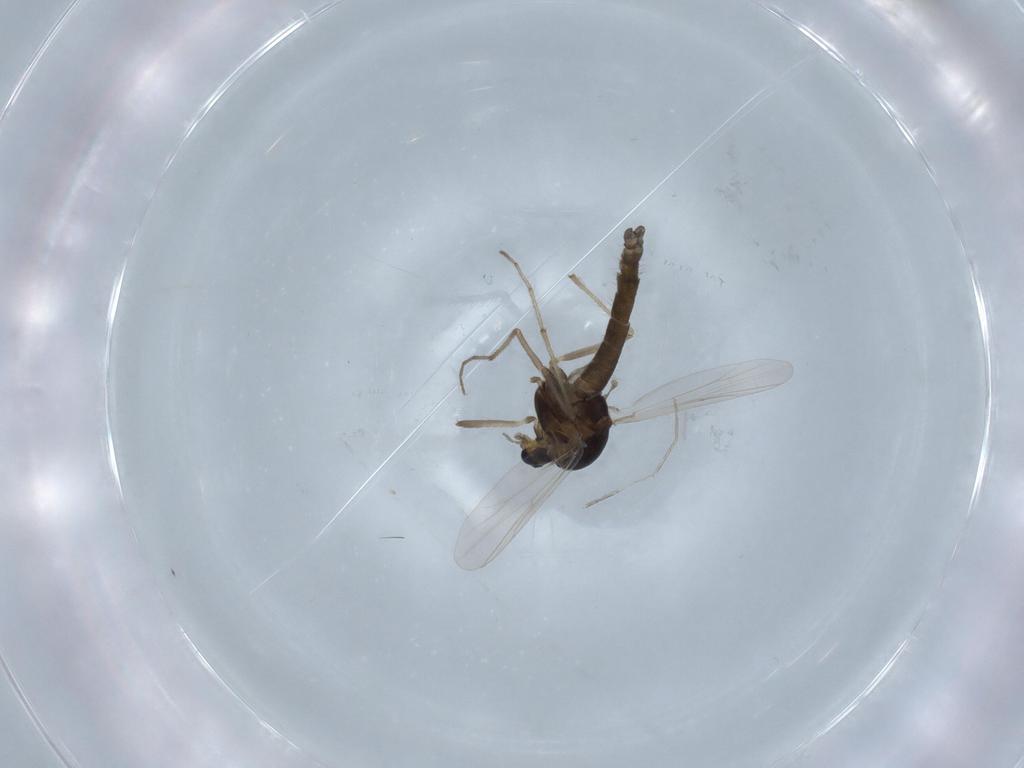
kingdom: Animalia
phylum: Arthropoda
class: Insecta
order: Diptera
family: Chironomidae
